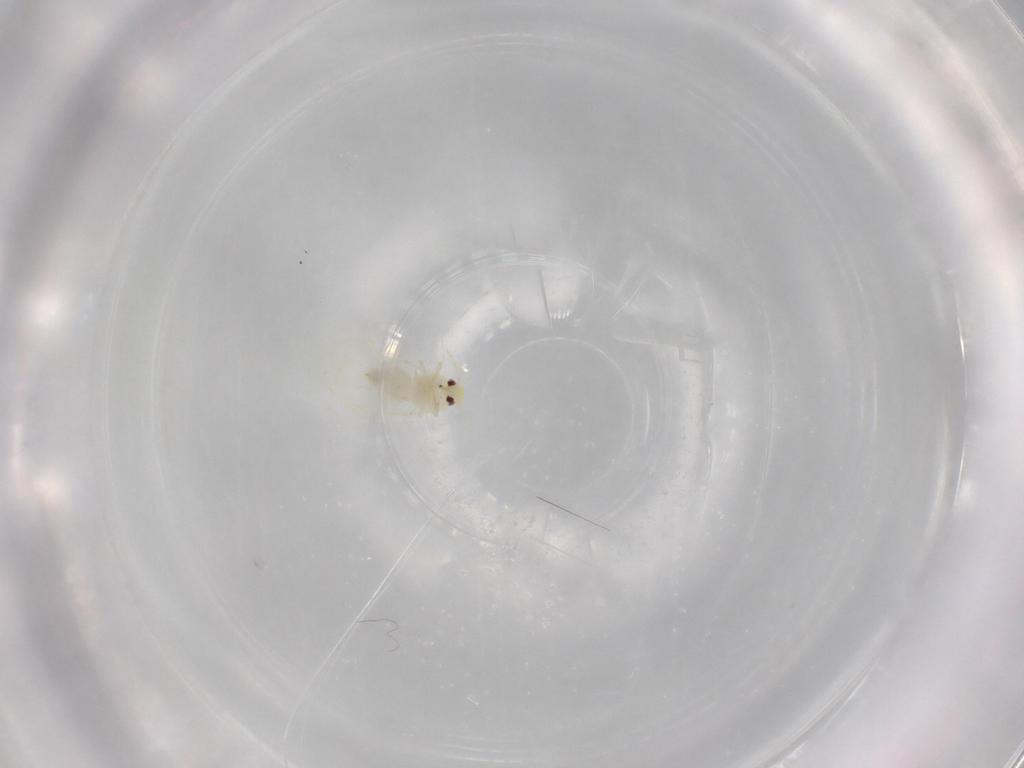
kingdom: Animalia
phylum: Arthropoda
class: Insecta
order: Hemiptera
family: Aleyrodidae
